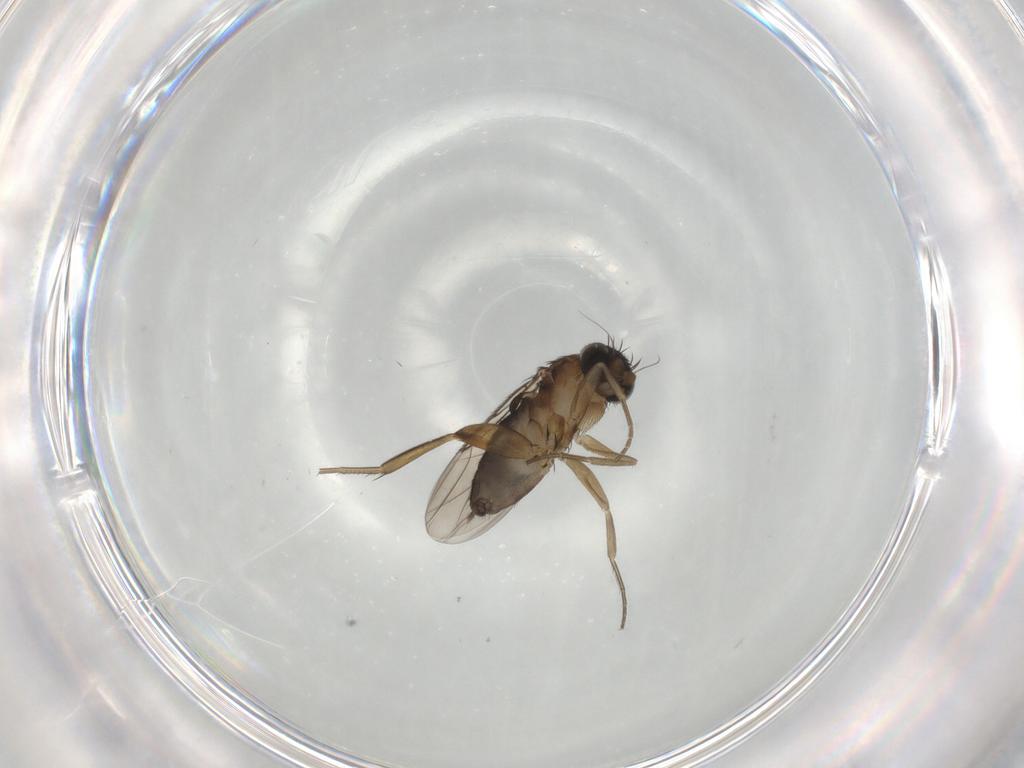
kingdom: Animalia
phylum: Arthropoda
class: Insecta
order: Diptera
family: Phoridae
